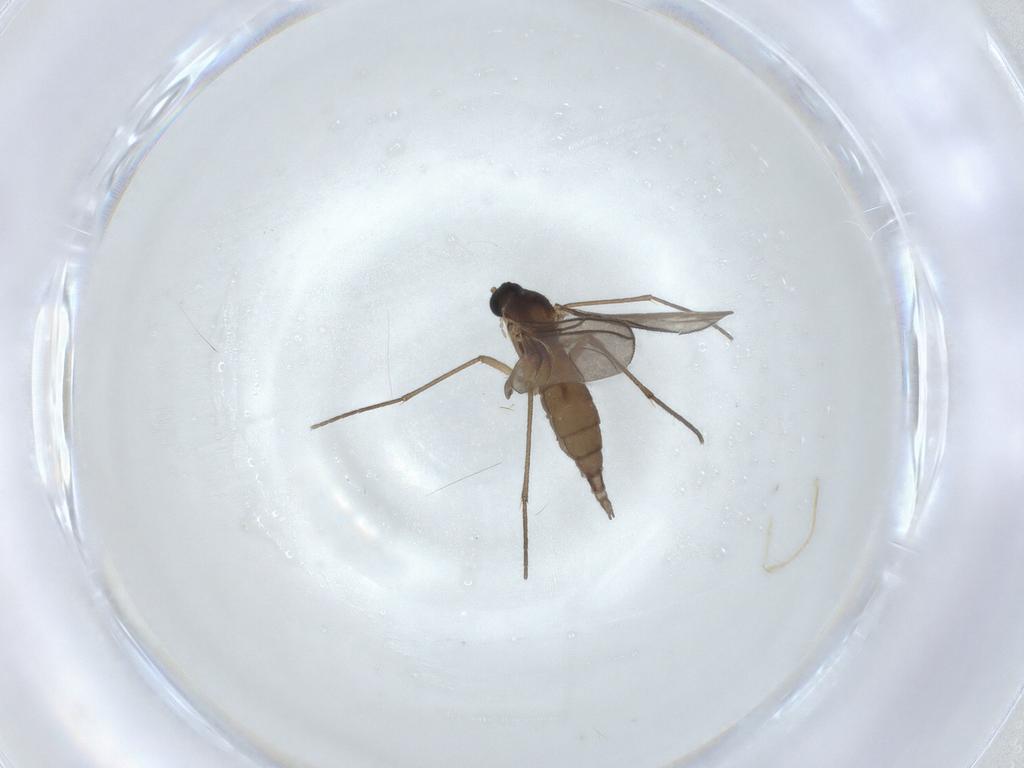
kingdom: Animalia
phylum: Arthropoda
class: Insecta
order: Diptera
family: Sciaridae
